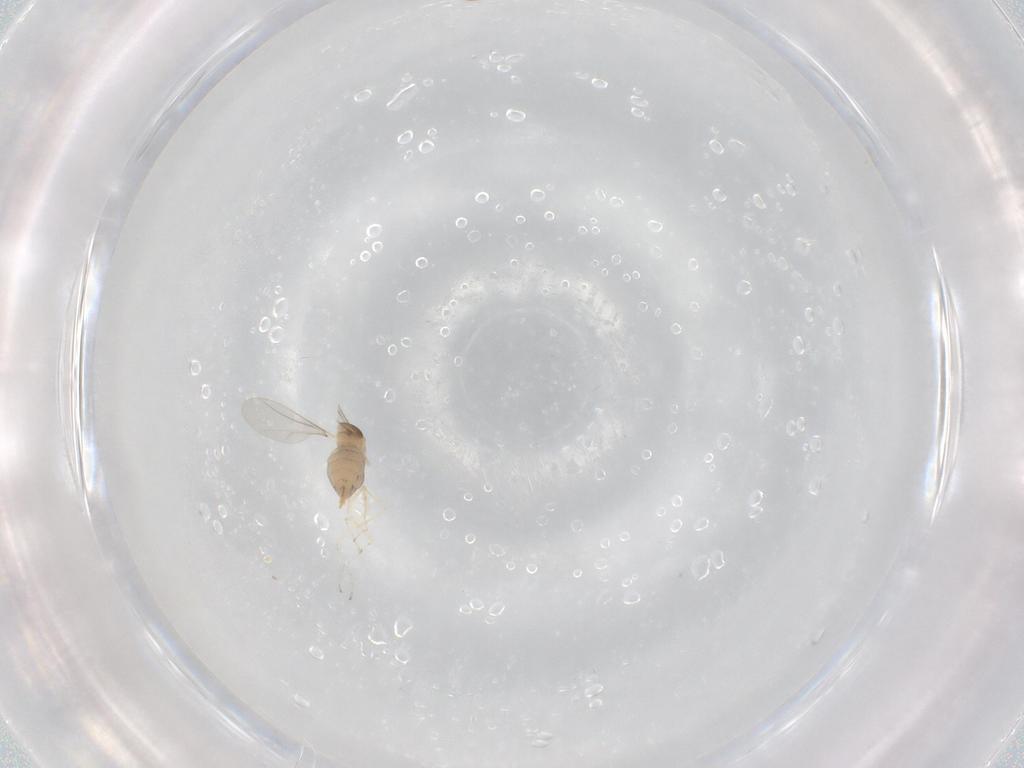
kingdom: Animalia
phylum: Arthropoda
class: Insecta
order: Diptera
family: Cecidomyiidae
